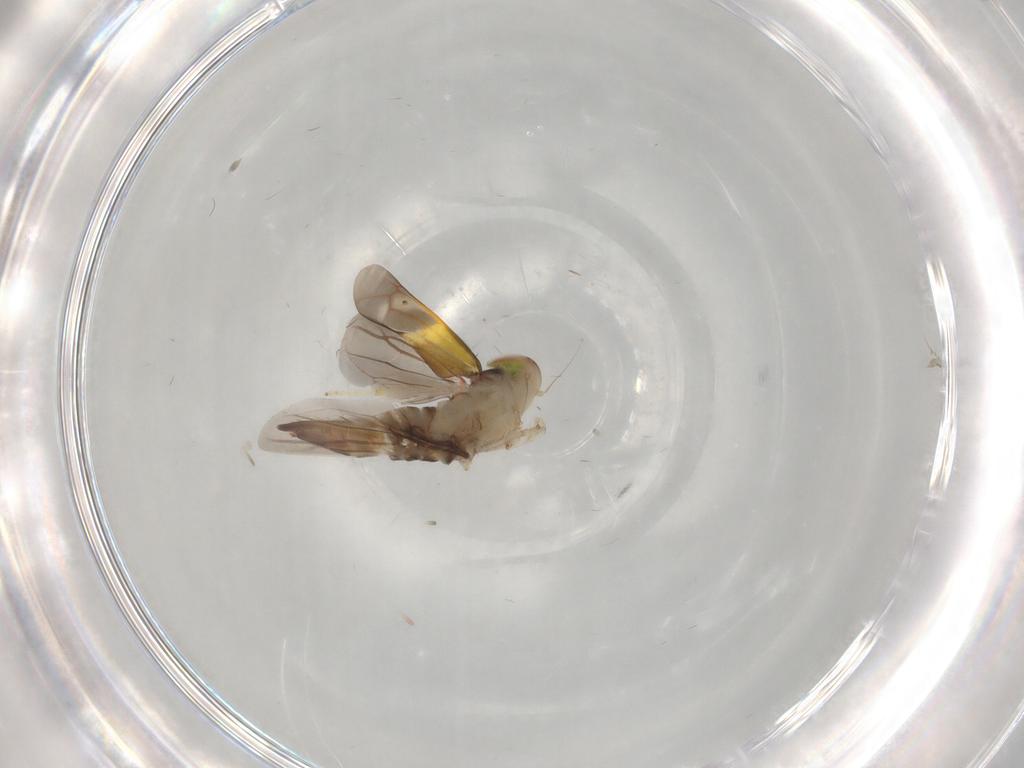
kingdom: Animalia
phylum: Arthropoda
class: Insecta
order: Hemiptera
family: Cicadellidae
